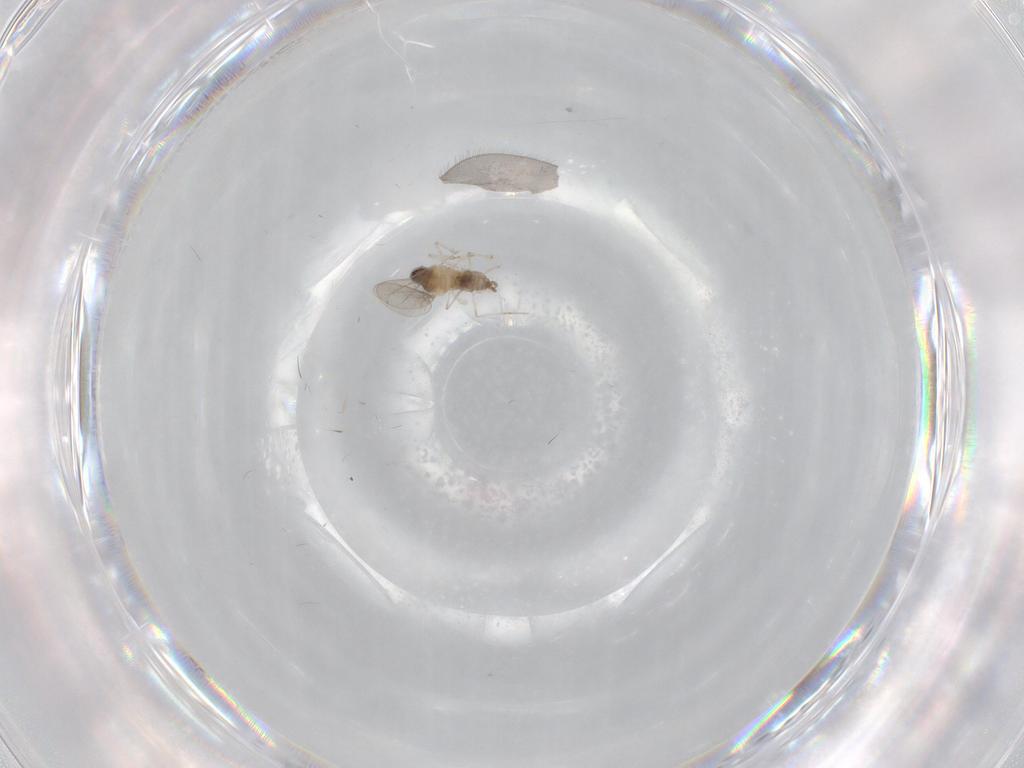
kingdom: Animalia
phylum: Arthropoda
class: Insecta
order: Diptera
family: Cecidomyiidae
